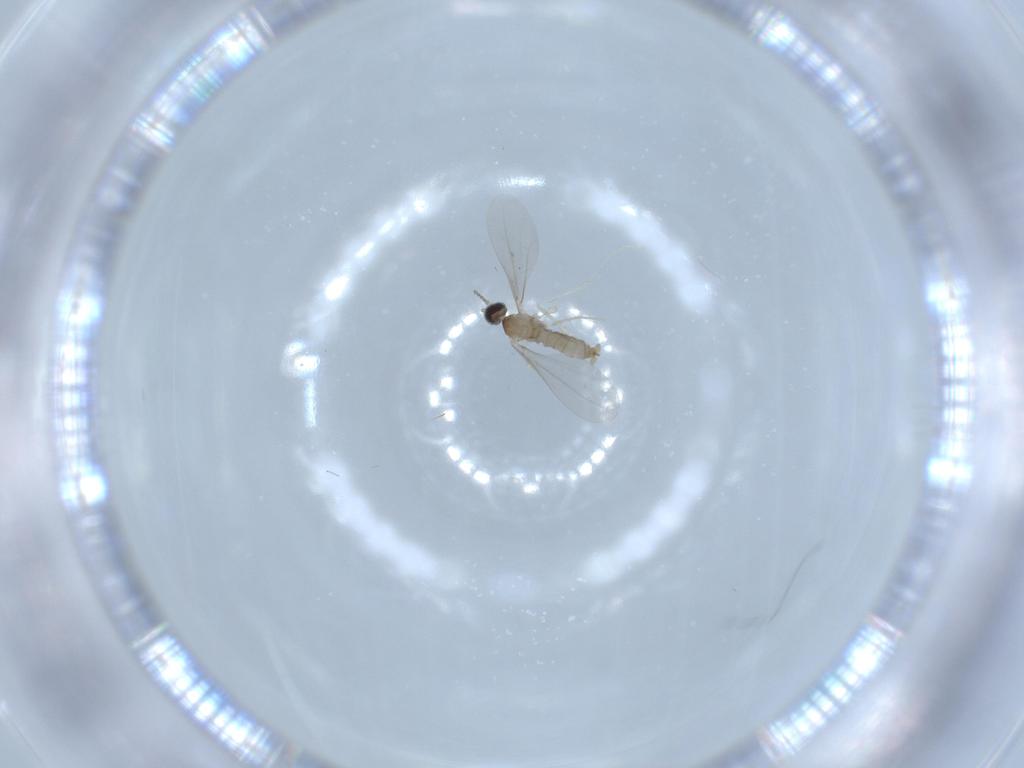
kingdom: Animalia
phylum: Arthropoda
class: Insecta
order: Diptera
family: Cecidomyiidae
